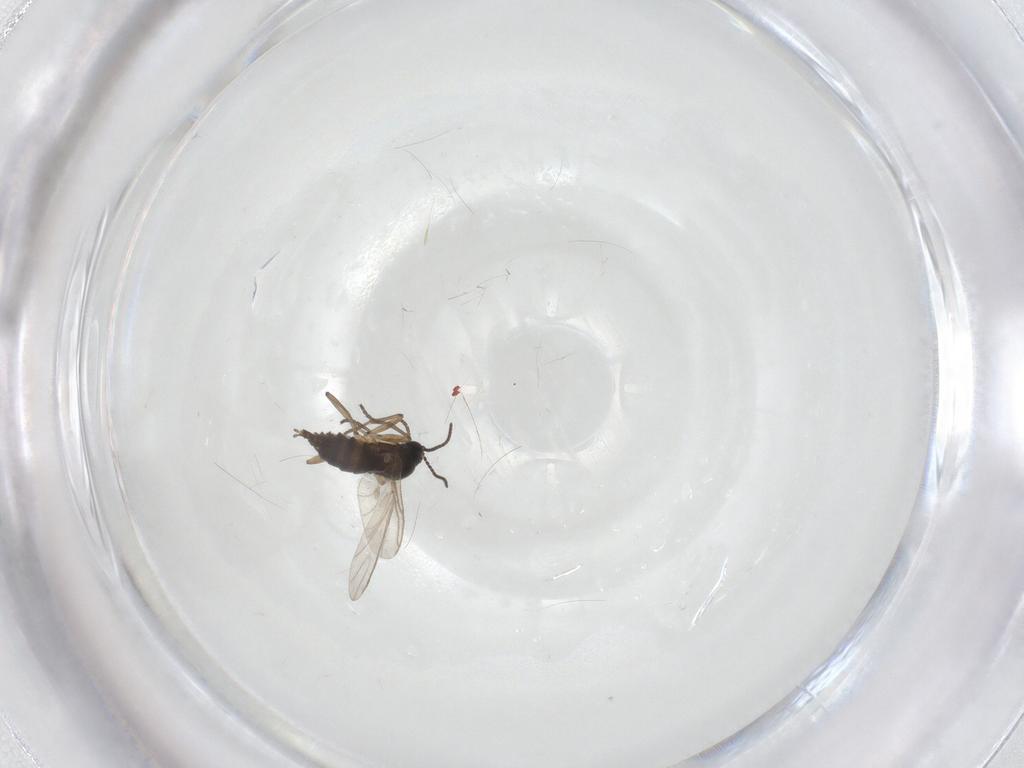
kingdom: Animalia
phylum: Arthropoda
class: Insecta
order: Diptera
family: Sciaridae
